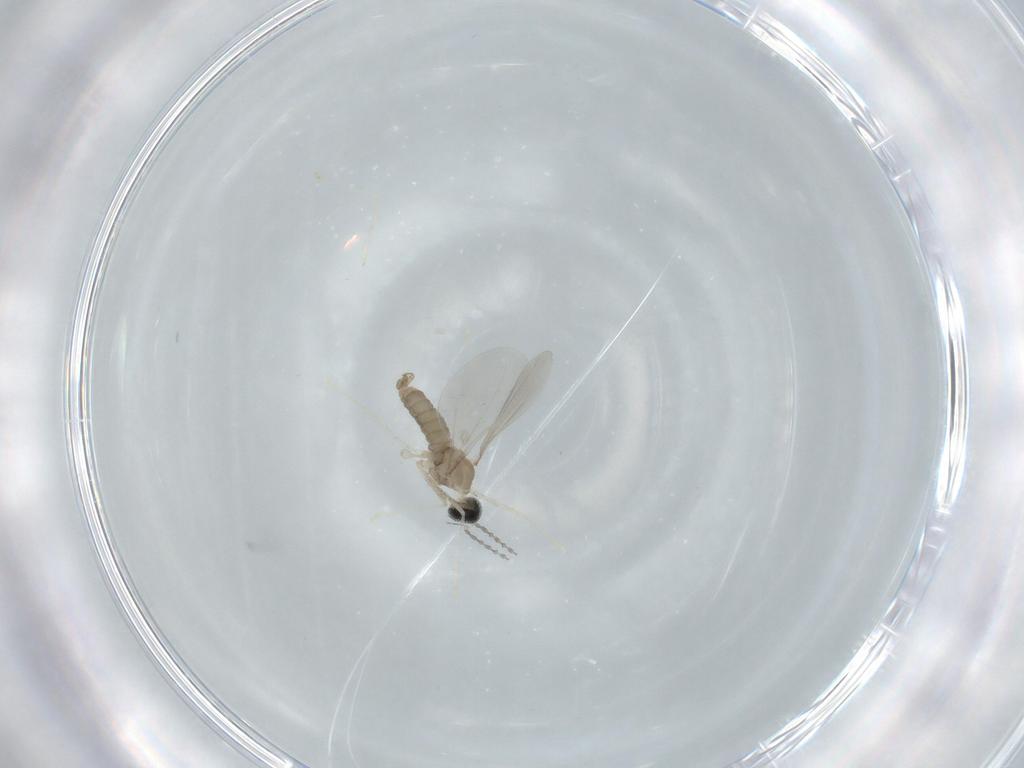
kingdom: Animalia
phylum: Arthropoda
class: Insecta
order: Diptera
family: Cecidomyiidae
